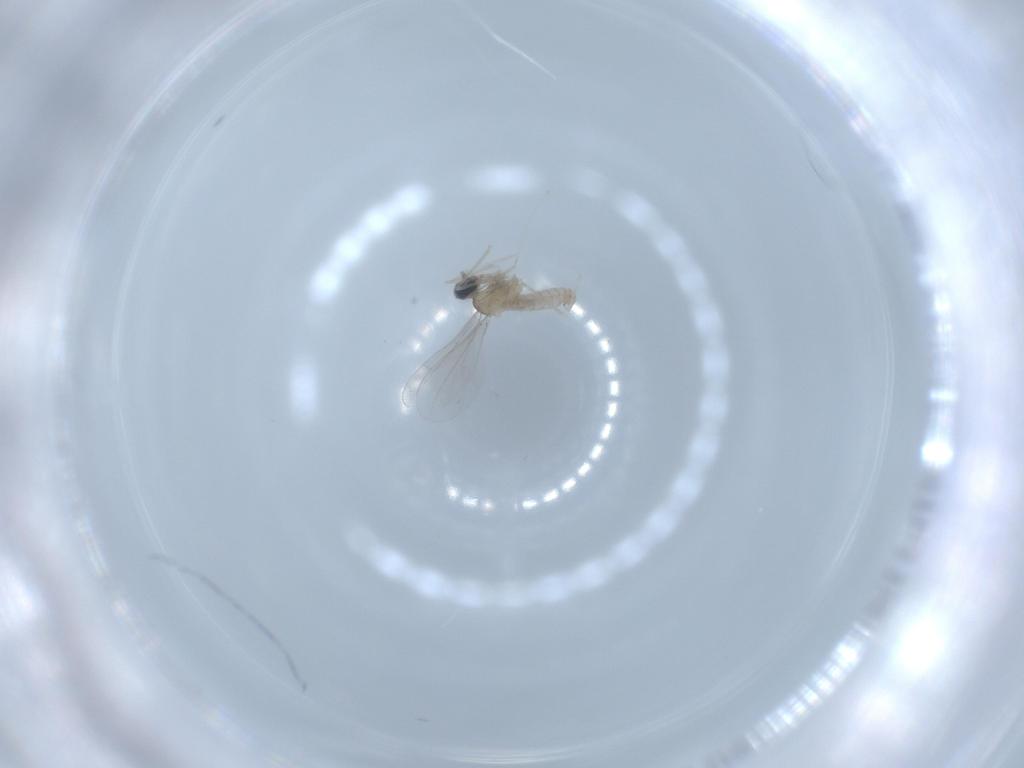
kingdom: Animalia
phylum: Arthropoda
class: Insecta
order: Diptera
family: Cecidomyiidae
